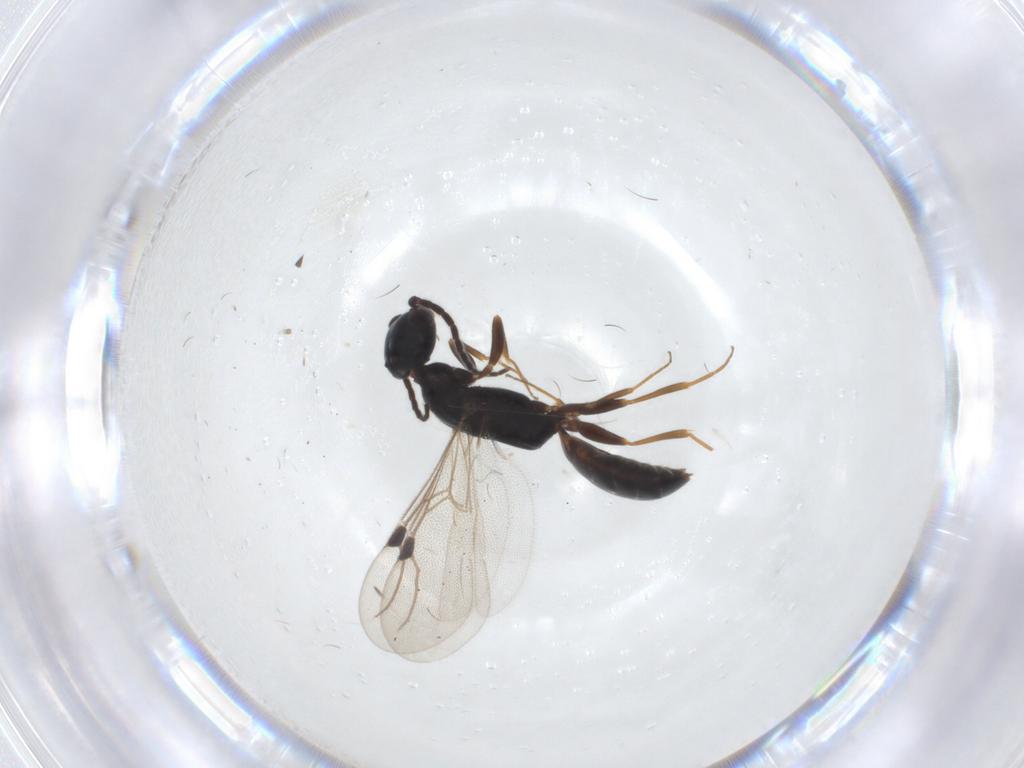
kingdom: Animalia
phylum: Arthropoda
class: Insecta
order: Hymenoptera
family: Bethylidae
